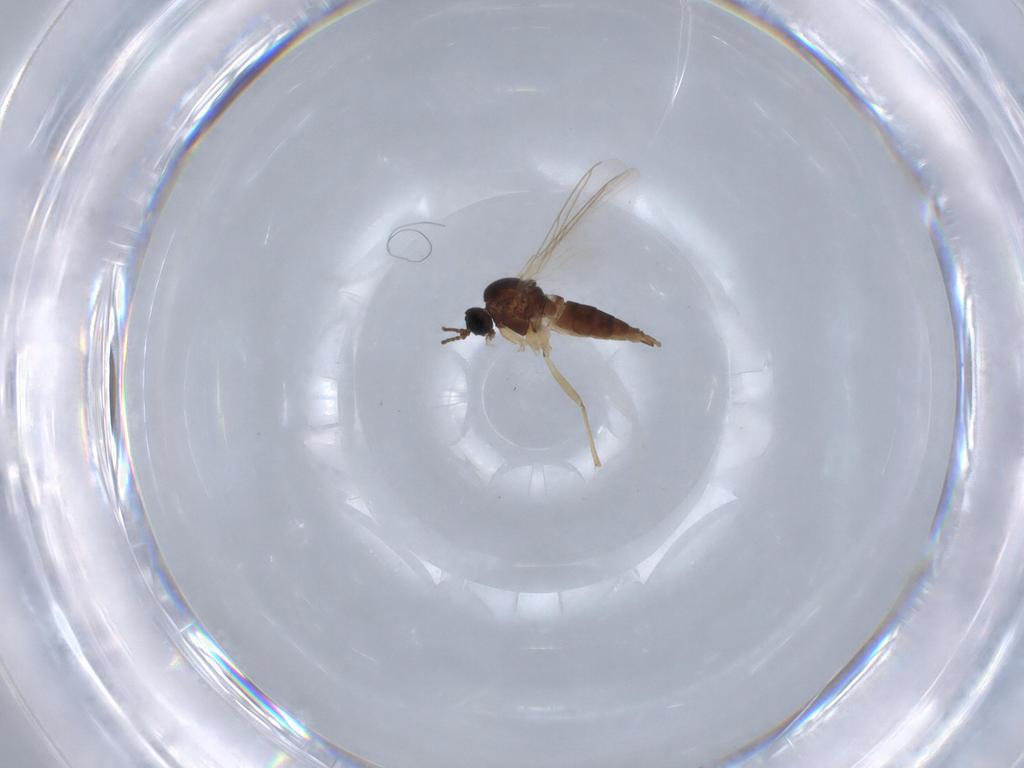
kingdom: Animalia
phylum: Arthropoda
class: Insecta
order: Diptera
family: Sciaridae
